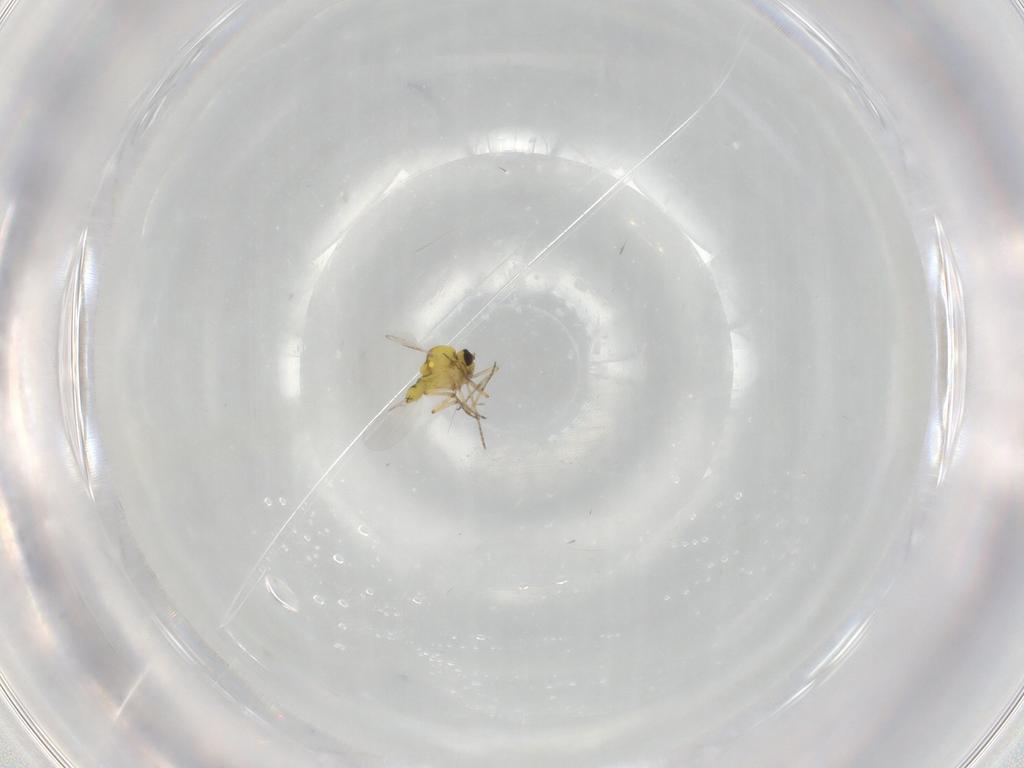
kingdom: Animalia
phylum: Arthropoda
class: Insecta
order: Diptera
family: Ceratopogonidae
